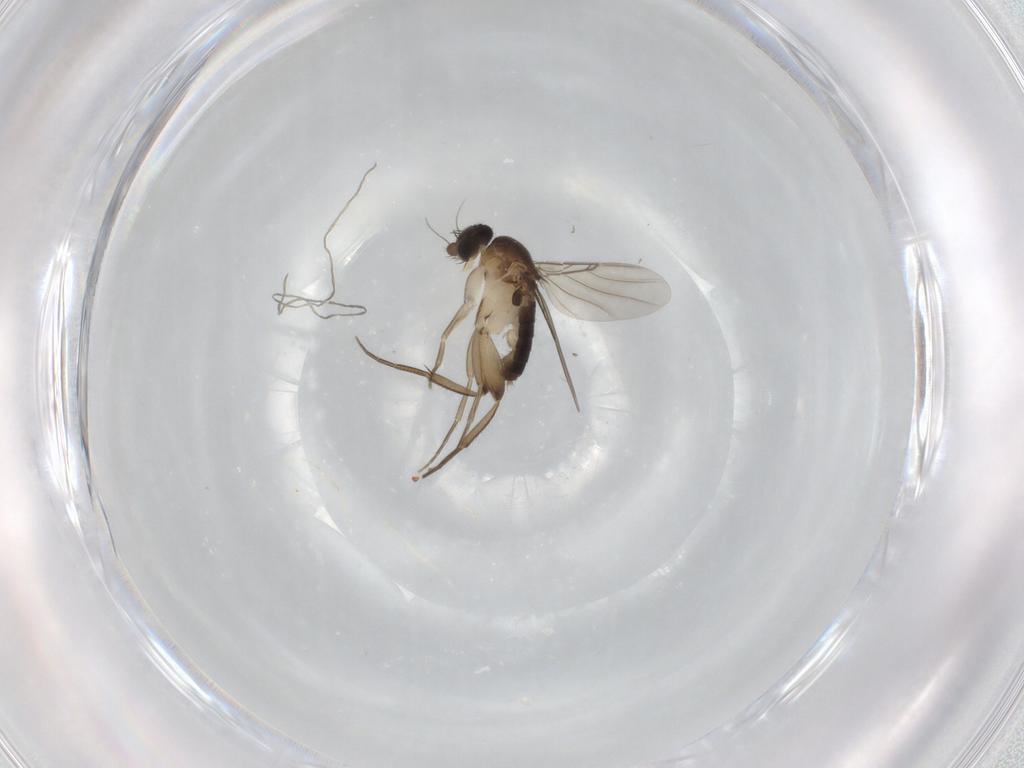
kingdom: Animalia
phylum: Arthropoda
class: Insecta
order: Diptera
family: Phoridae
